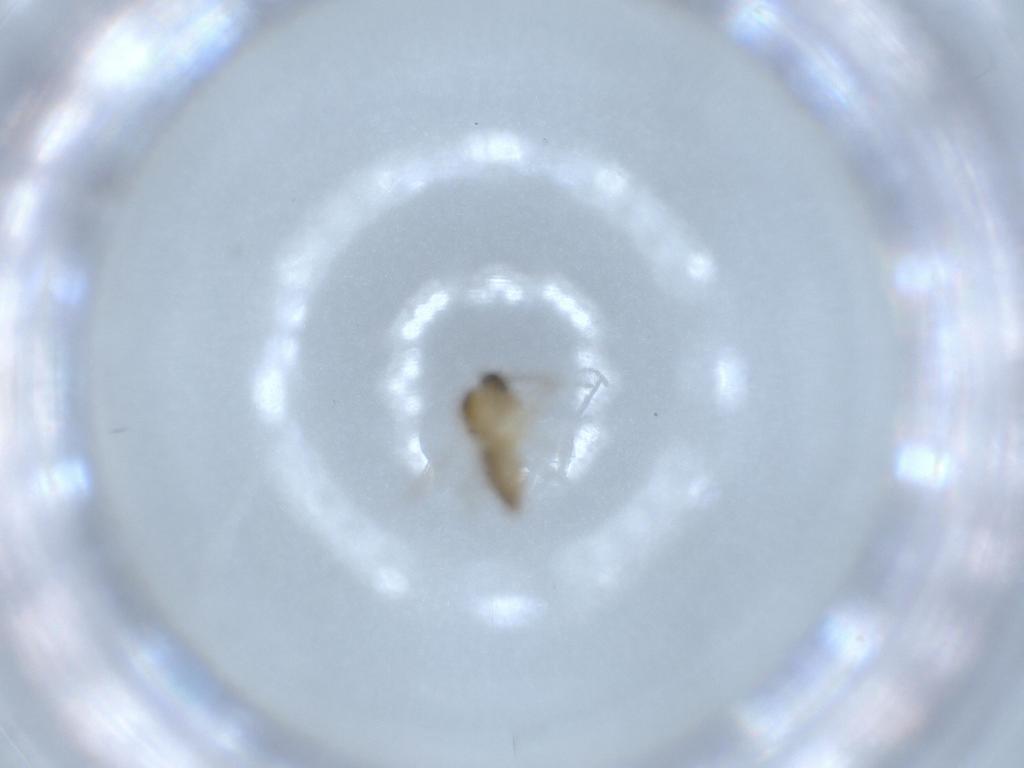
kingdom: Animalia
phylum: Arthropoda
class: Insecta
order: Diptera
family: Ceratopogonidae
